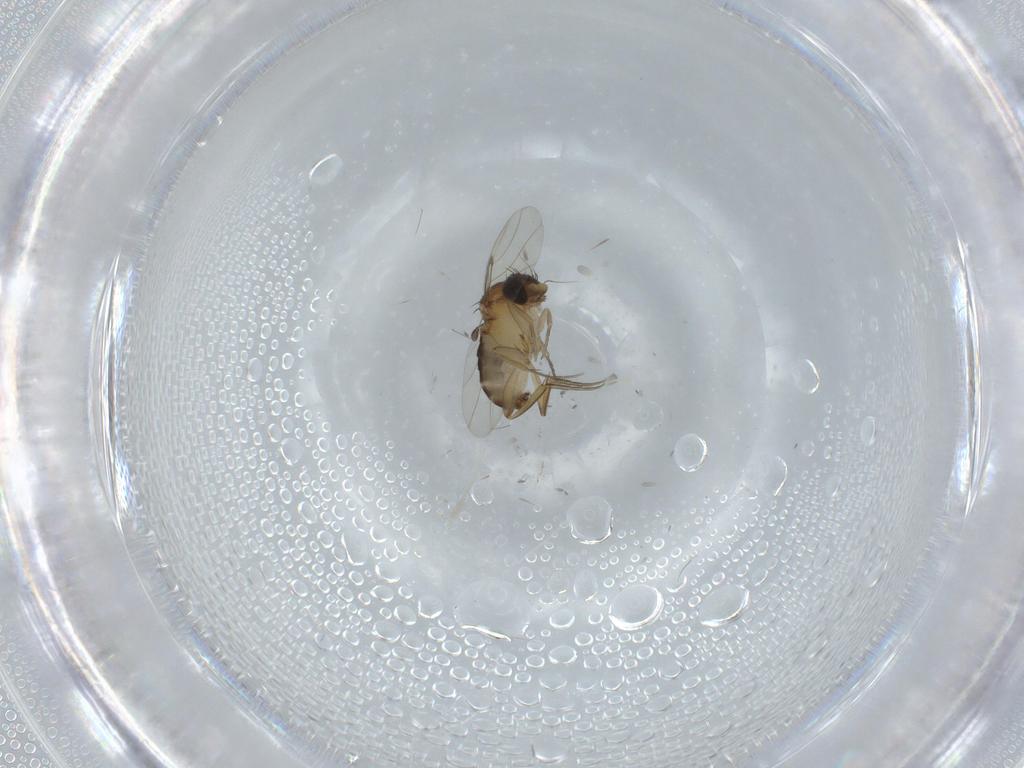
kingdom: Animalia
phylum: Arthropoda
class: Insecta
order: Diptera
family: Phoridae
